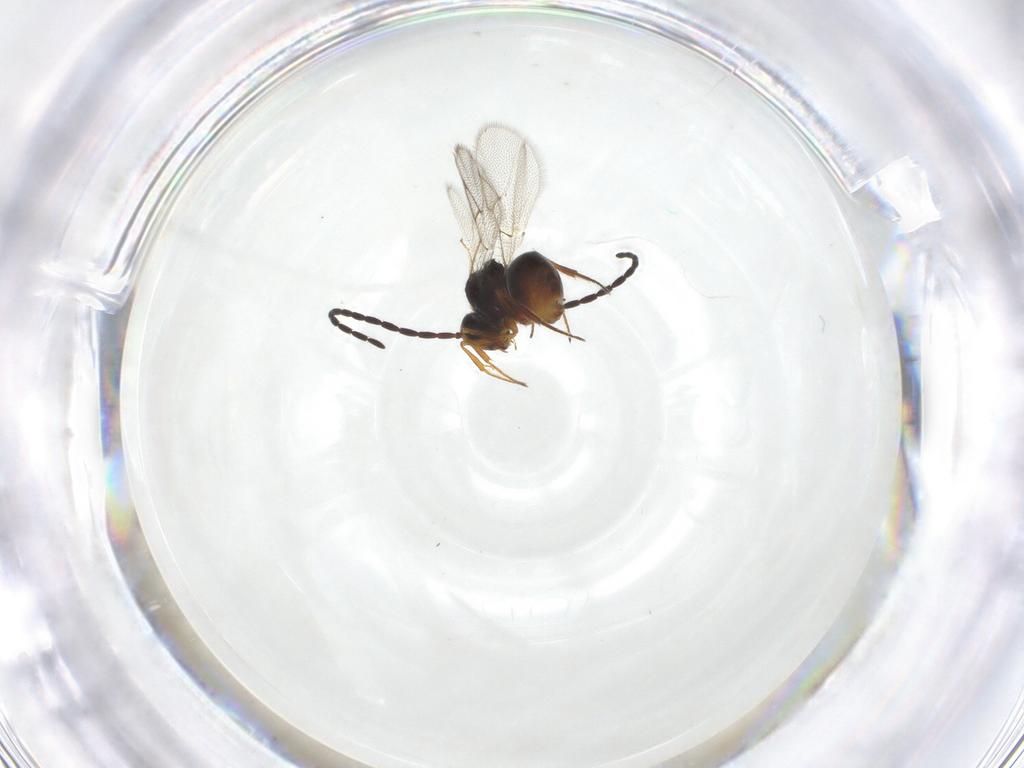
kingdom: Animalia
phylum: Arthropoda
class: Insecta
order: Hymenoptera
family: Figitidae
